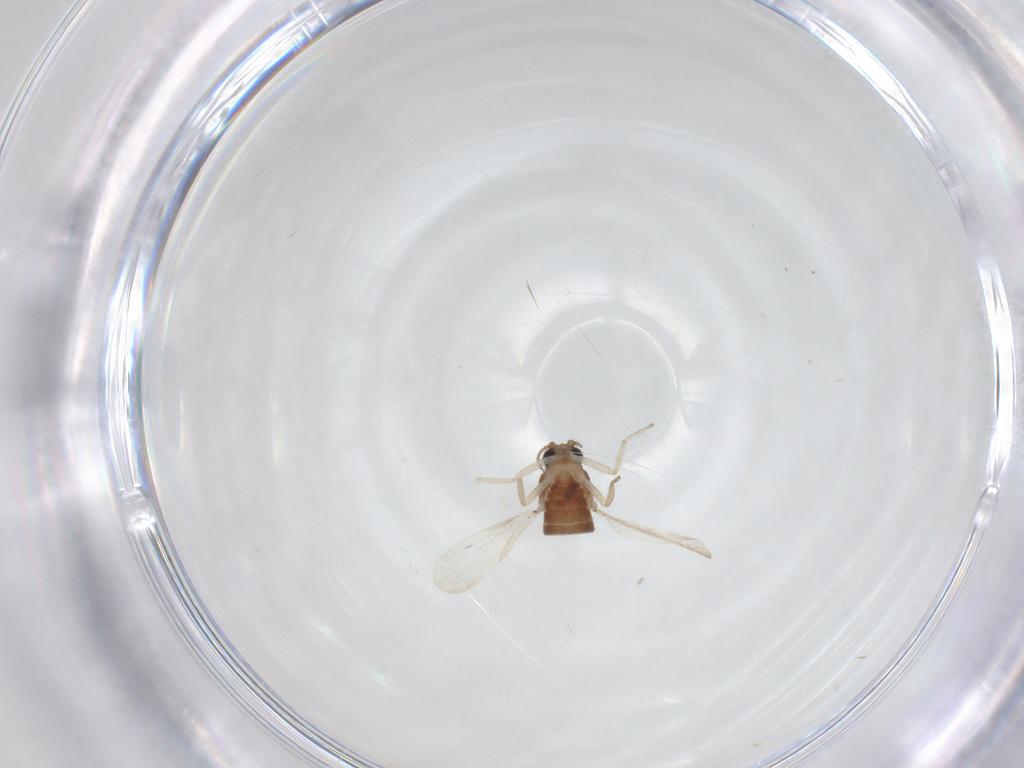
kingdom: Animalia
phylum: Arthropoda
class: Insecta
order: Diptera
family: Ceratopogonidae
